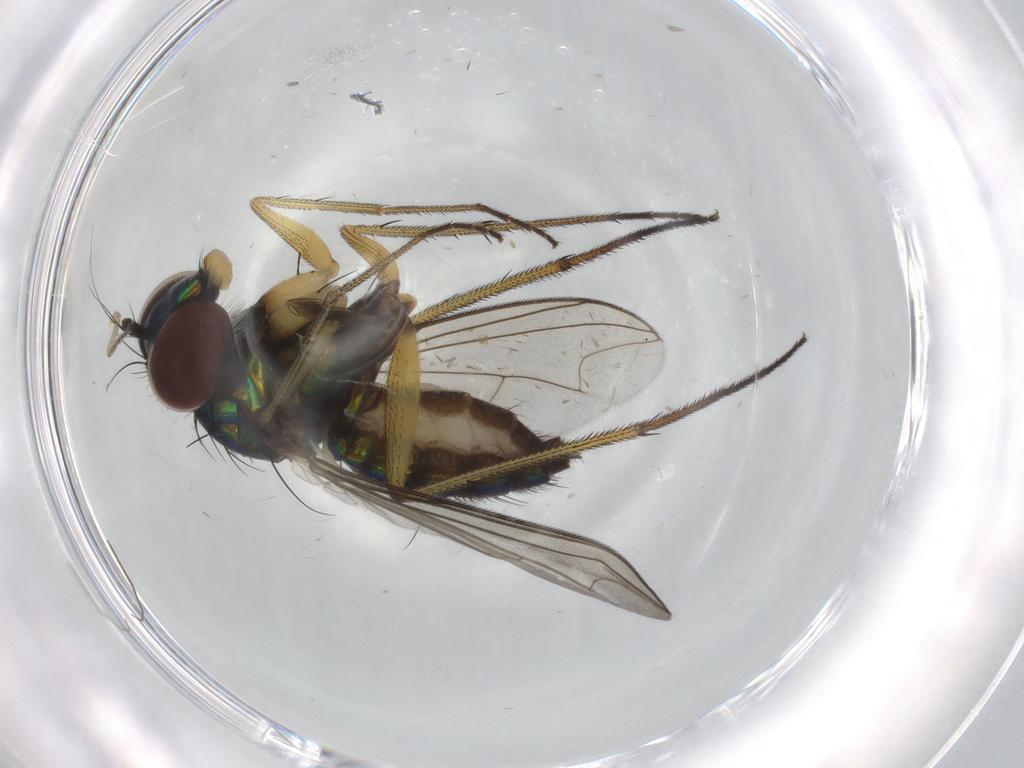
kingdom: Animalia
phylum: Arthropoda
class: Insecta
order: Diptera
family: Dolichopodidae
